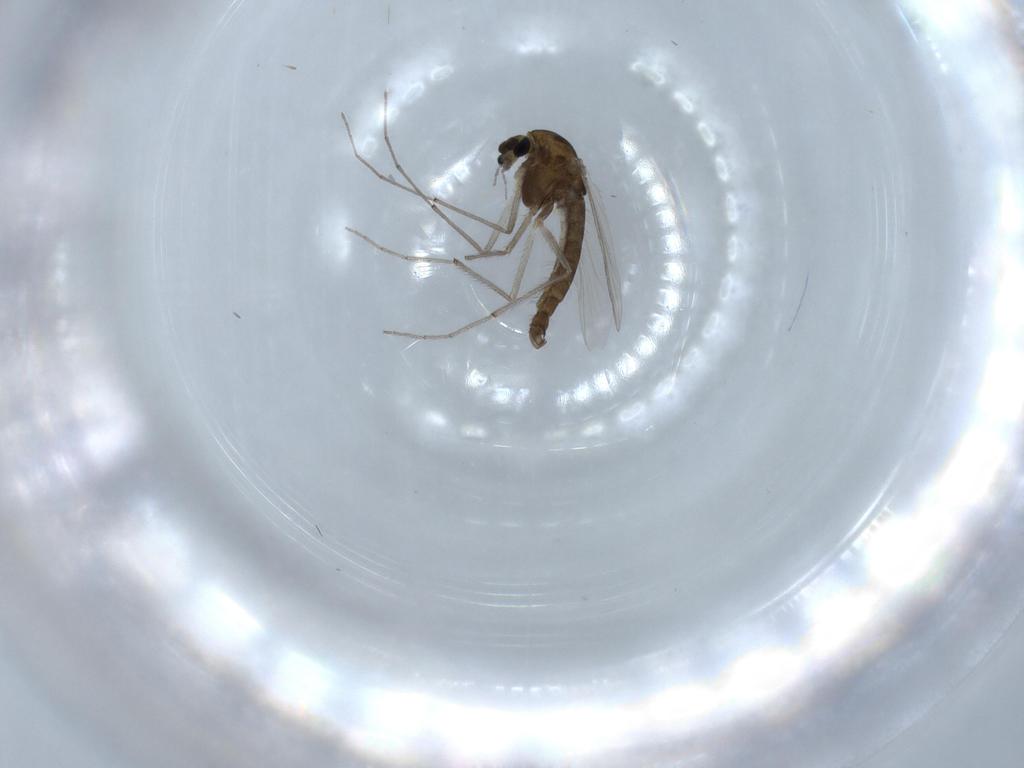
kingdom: Animalia
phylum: Arthropoda
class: Insecta
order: Diptera
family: Chironomidae
